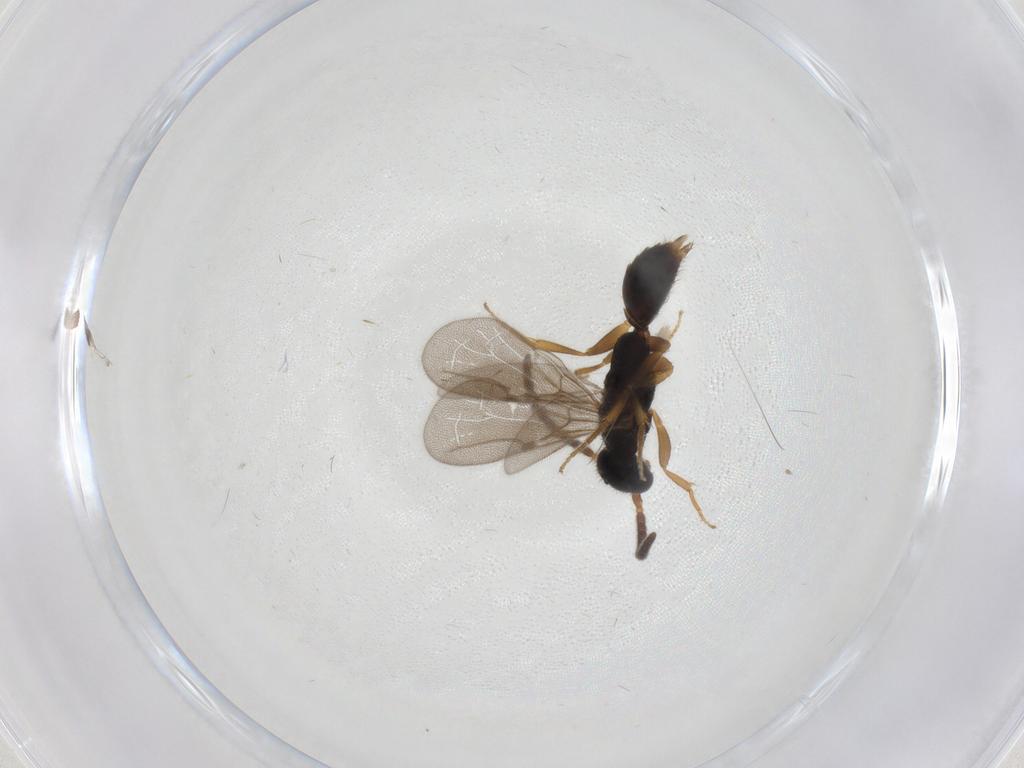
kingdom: Animalia
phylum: Arthropoda
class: Insecta
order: Hymenoptera
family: Bethylidae
